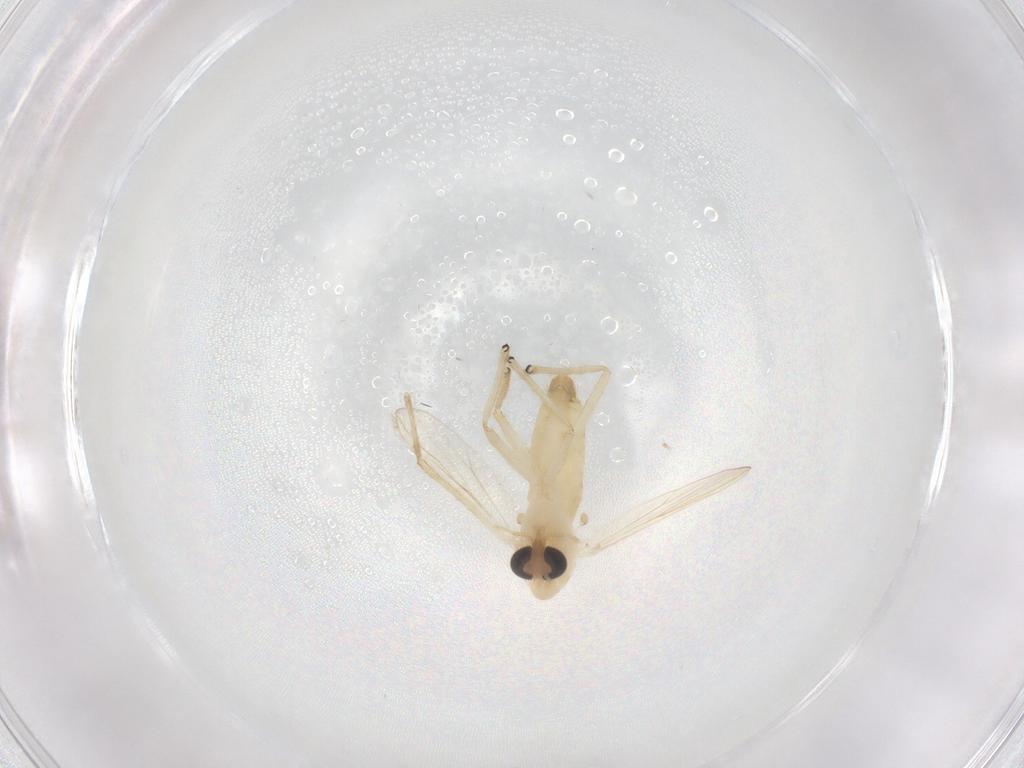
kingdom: Animalia
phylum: Arthropoda
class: Insecta
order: Diptera
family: Chironomidae
